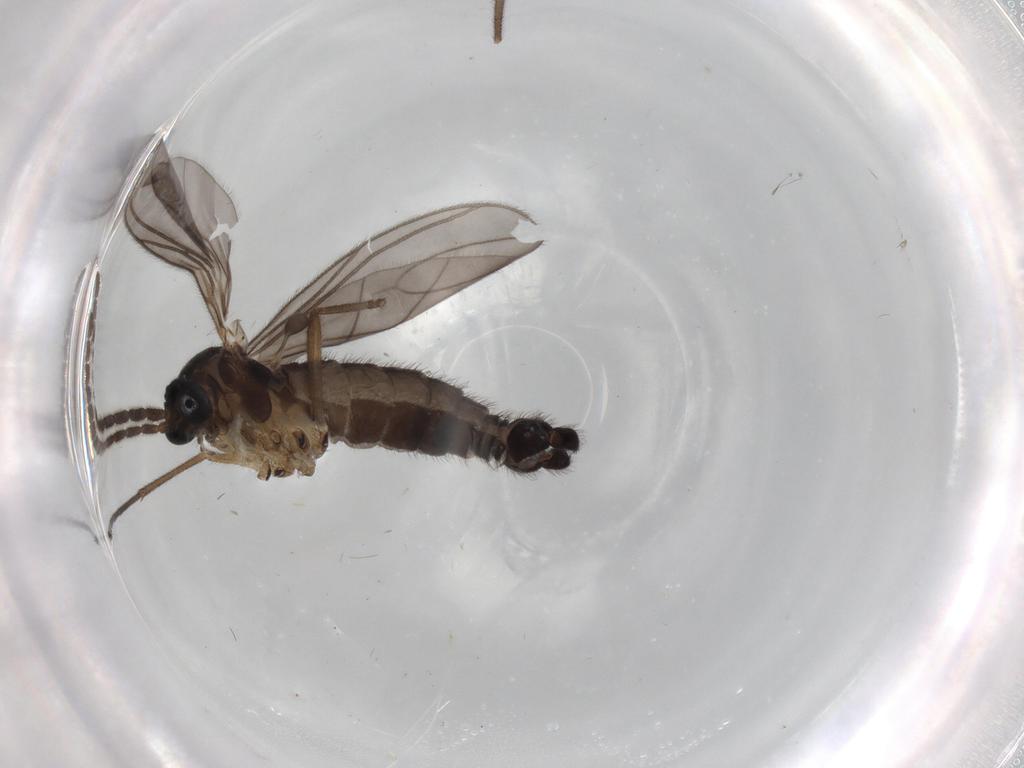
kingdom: Animalia
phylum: Arthropoda
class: Insecta
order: Diptera
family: Sciaridae
